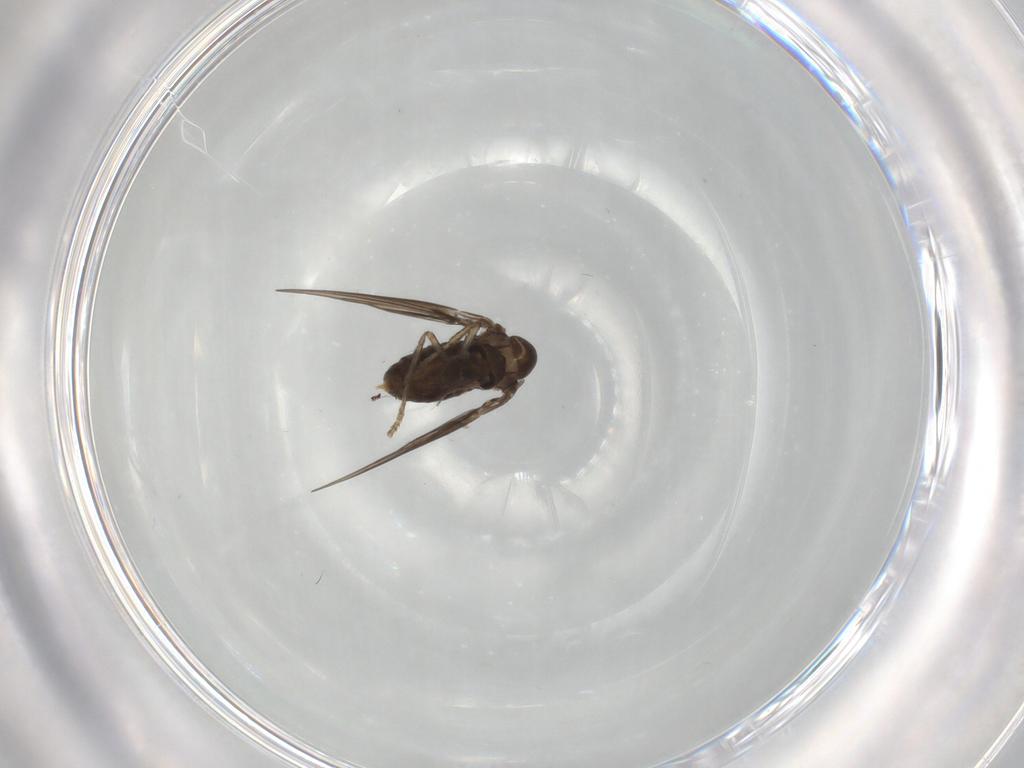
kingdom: Animalia
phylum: Arthropoda
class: Insecta
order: Diptera
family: Psychodidae
